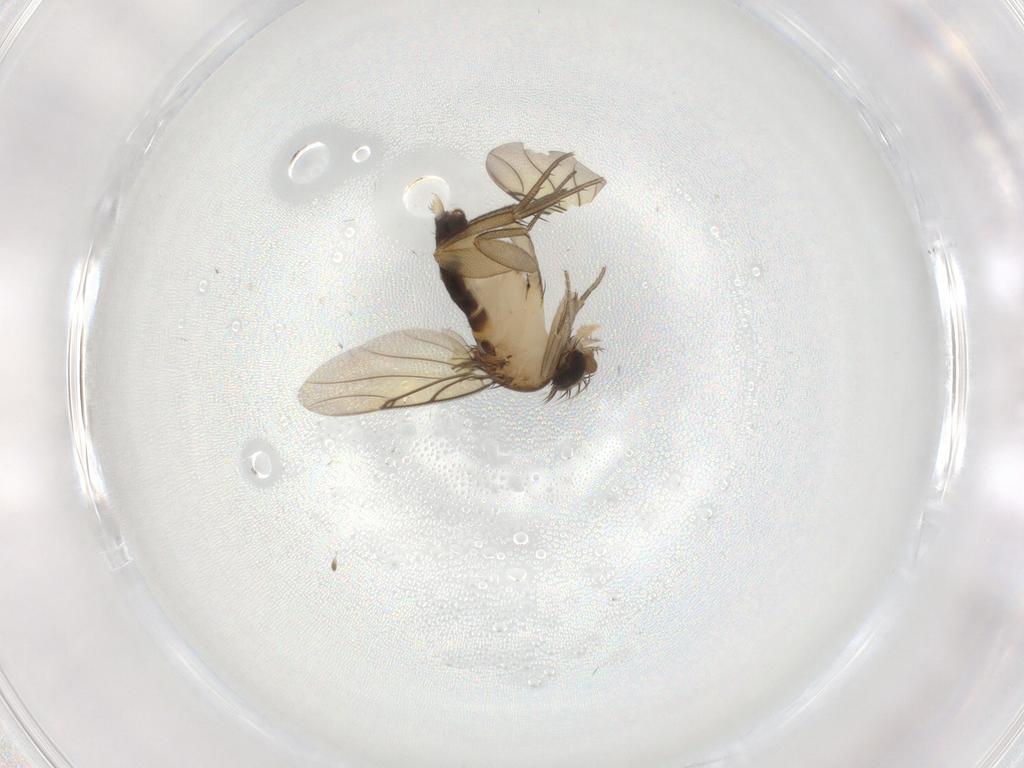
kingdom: Animalia
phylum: Arthropoda
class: Insecta
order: Diptera
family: Phoridae
